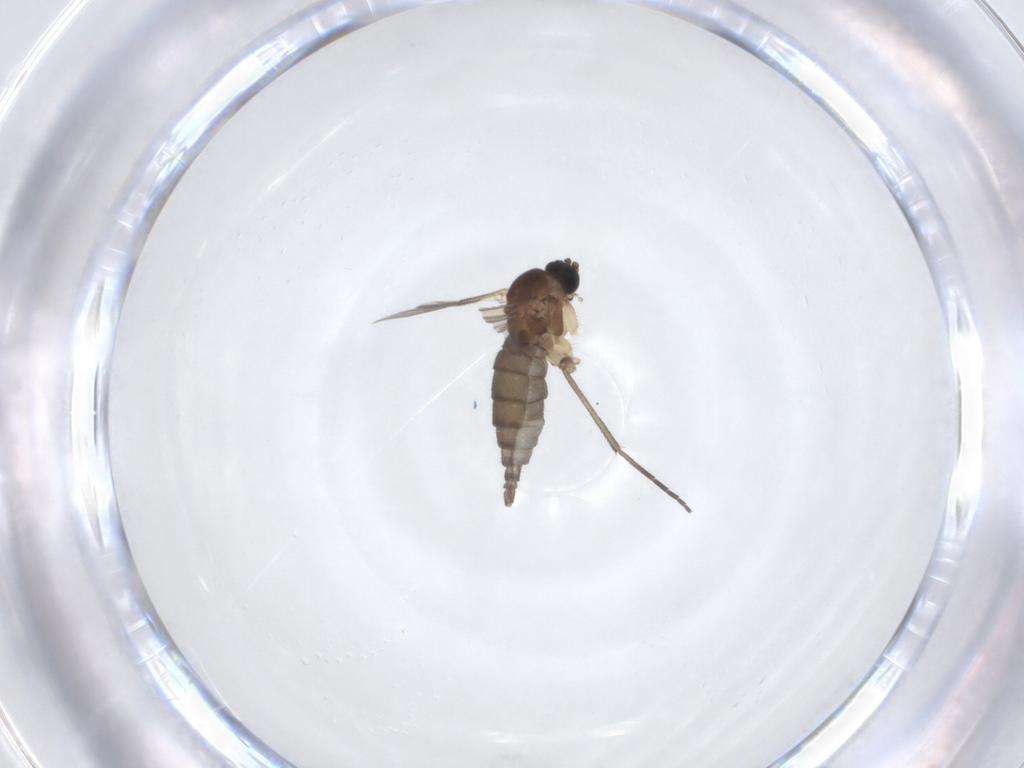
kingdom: Animalia
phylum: Arthropoda
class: Insecta
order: Diptera
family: Sciaridae
